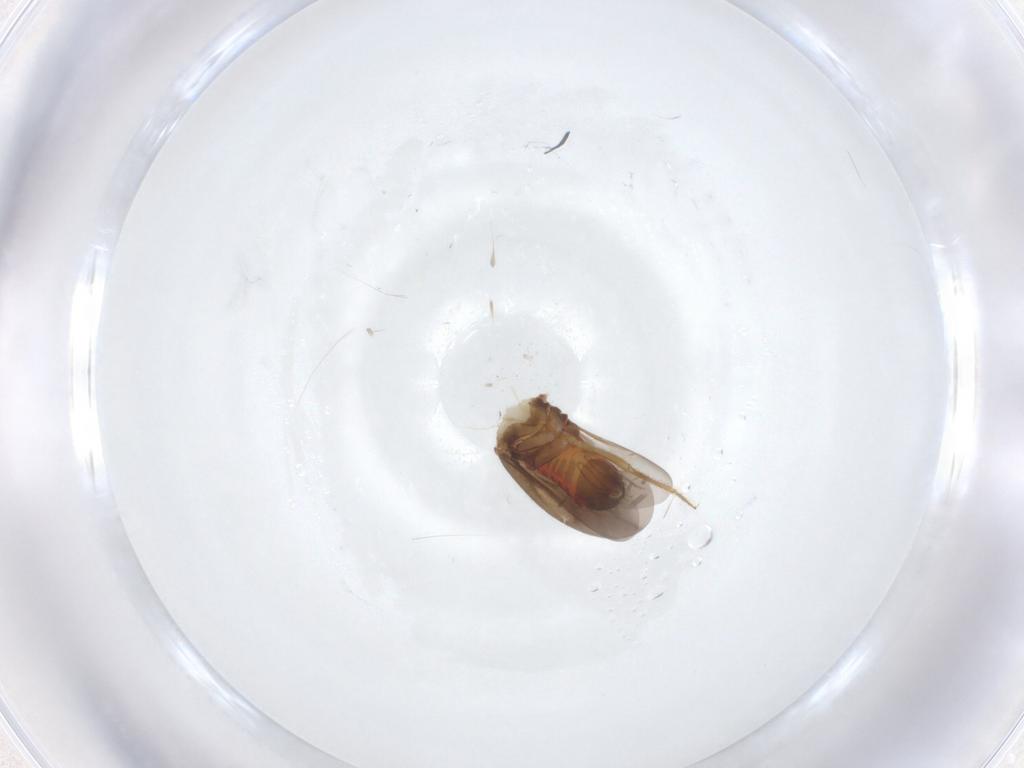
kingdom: Animalia
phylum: Arthropoda
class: Insecta
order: Hemiptera
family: Ceratocombidae
